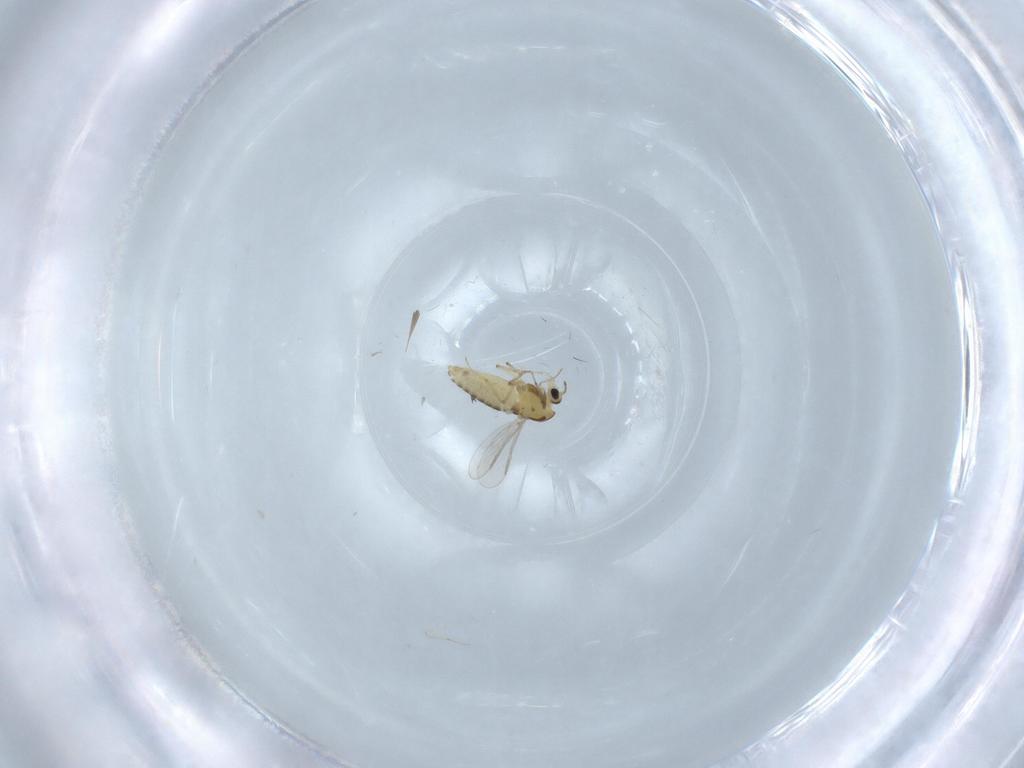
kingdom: Animalia
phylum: Arthropoda
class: Insecta
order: Diptera
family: Chironomidae
